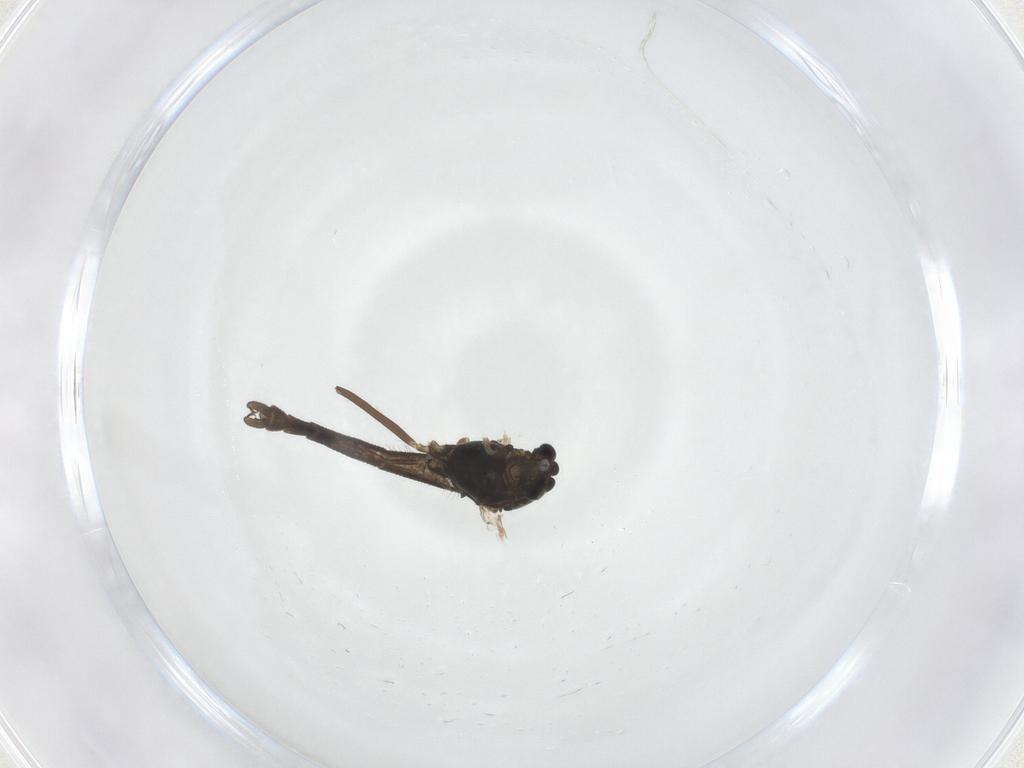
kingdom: Animalia
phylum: Arthropoda
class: Insecta
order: Diptera
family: Chironomidae
